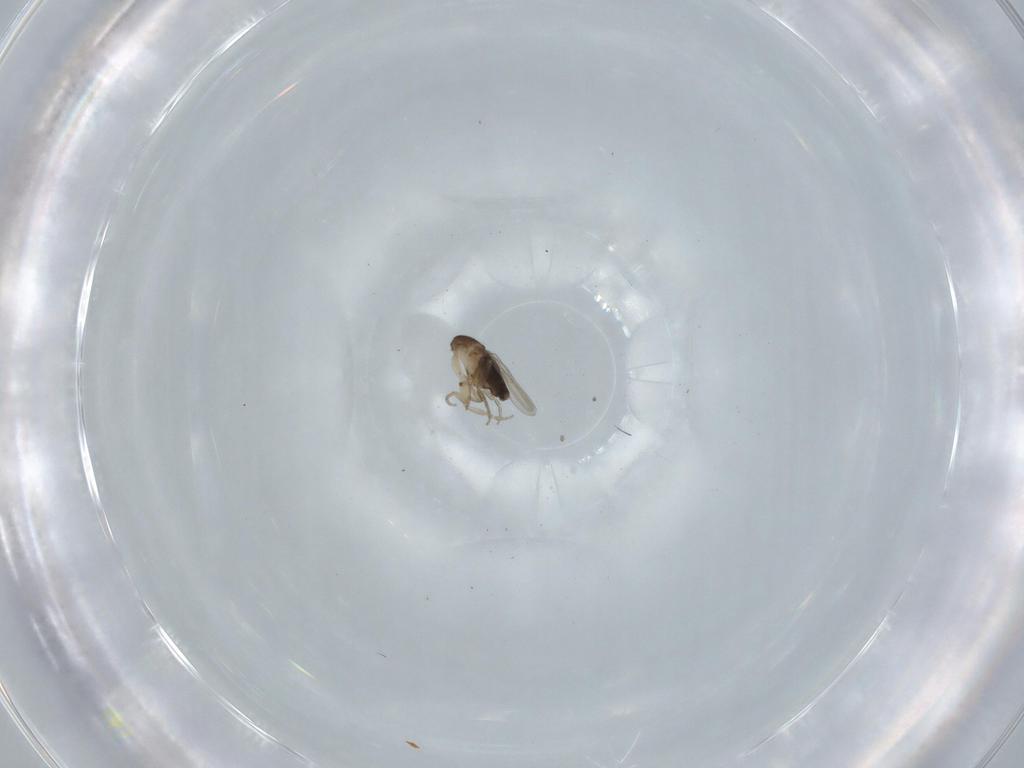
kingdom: Animalia
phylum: Arthropoda
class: Insecta
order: Diptera
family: Phoridae
